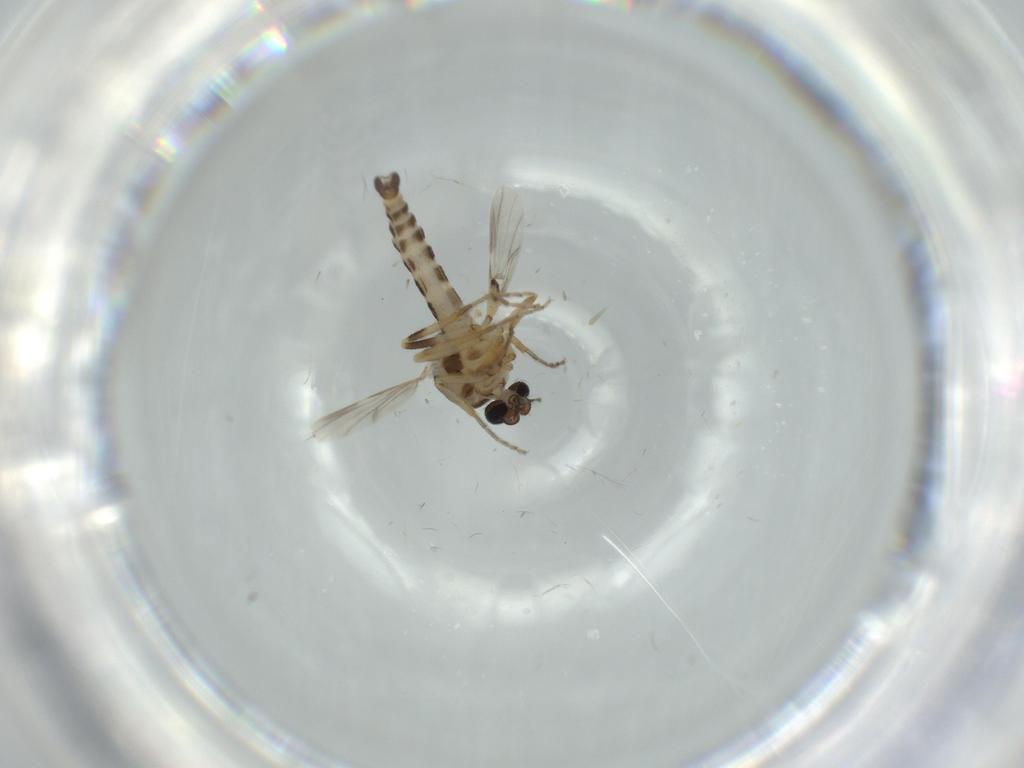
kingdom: Animalia
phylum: Arthropoda
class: Insecta
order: Diptera
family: Ceratopogonidae
